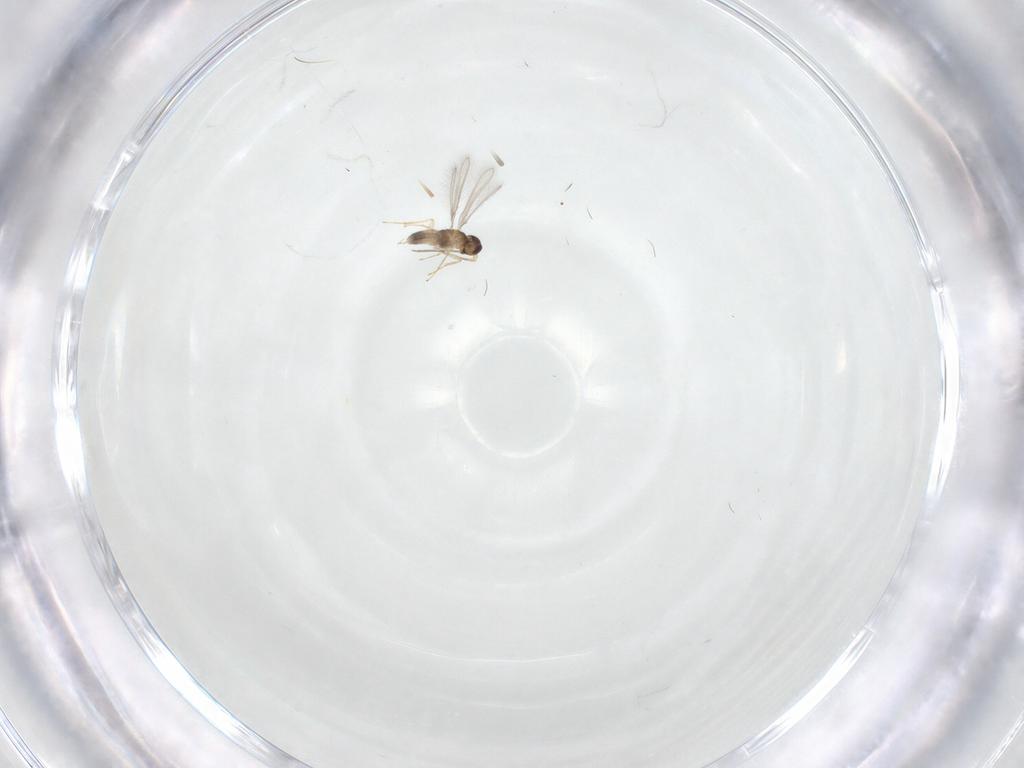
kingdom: Animalia
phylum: Arthropoda
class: Insecta
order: Hymenoptera
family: Mymaridae
